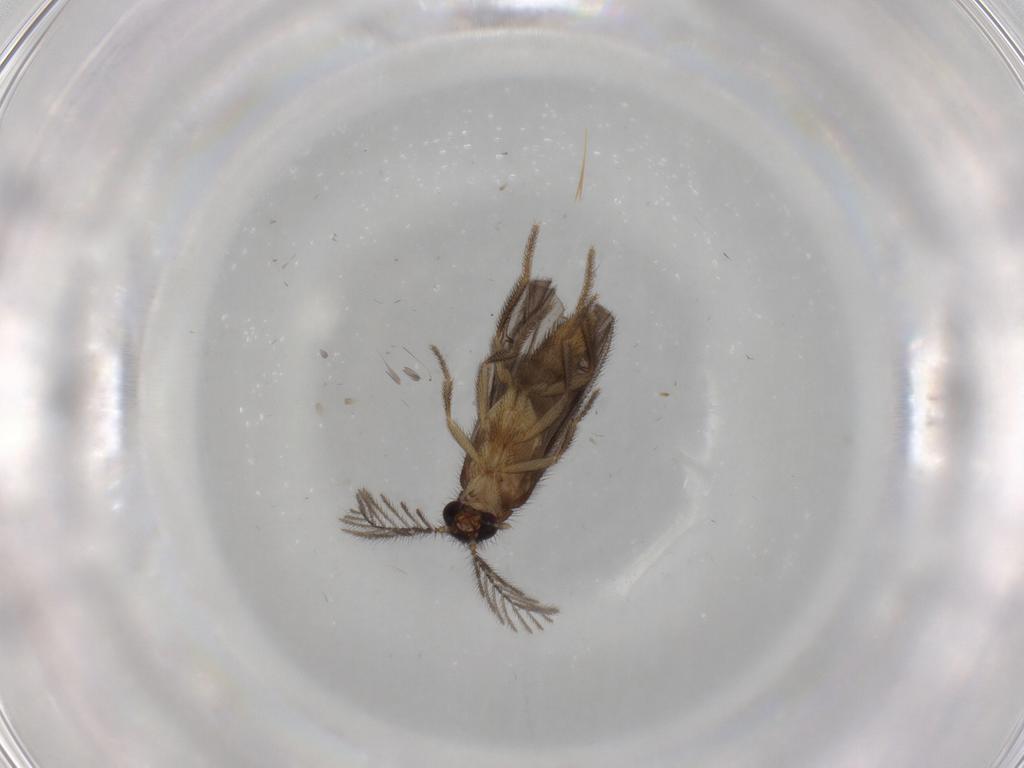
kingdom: Animalia
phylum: Arthropoda
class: Insecta
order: Coleoptera
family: Phengodidae
